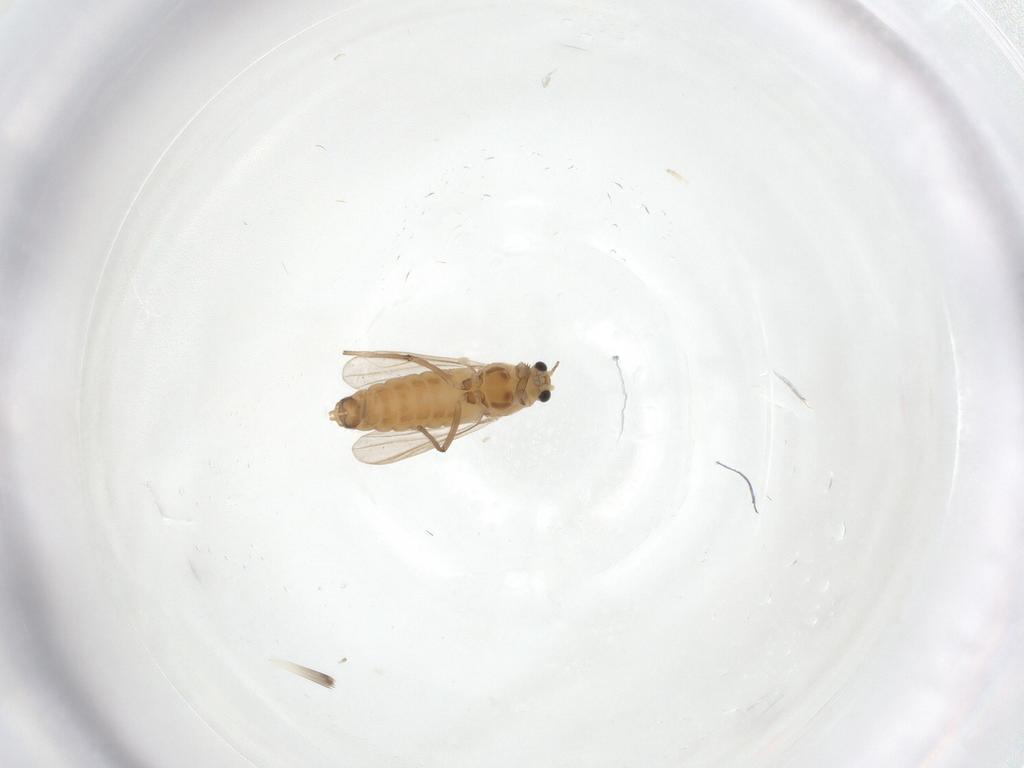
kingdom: Animalia
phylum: Arthropoda
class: Insecta
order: Diptera
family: Chironomidae
